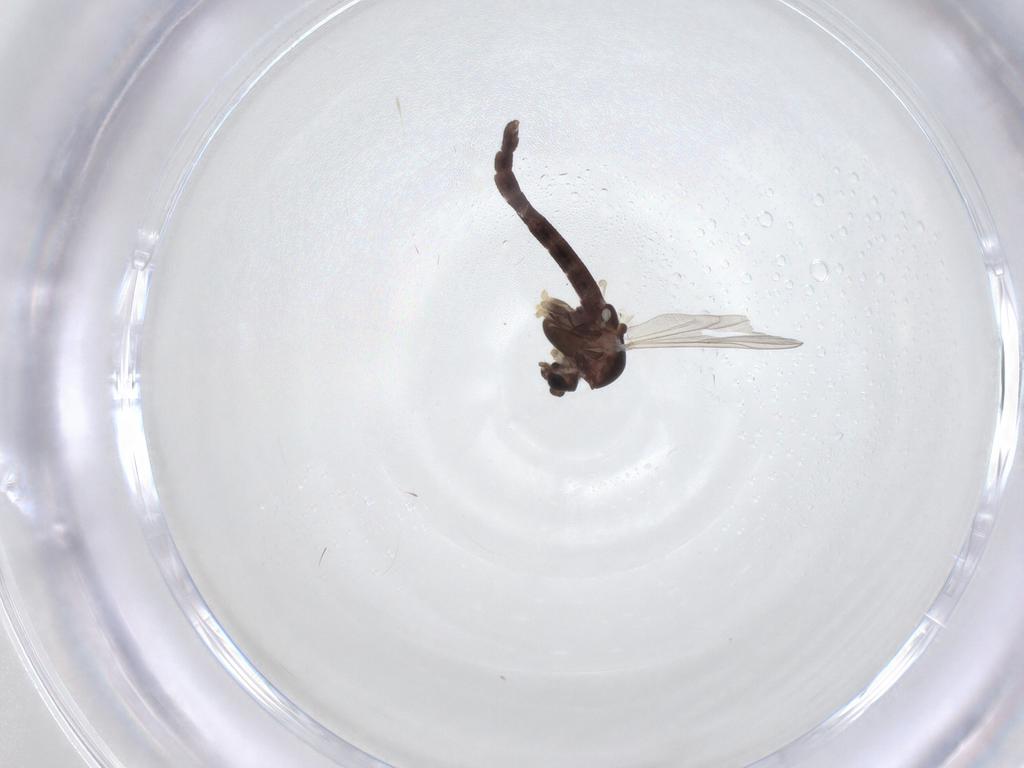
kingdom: Animalia
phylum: Arthropoda
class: Insecta
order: Diptera
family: Chironomidae
